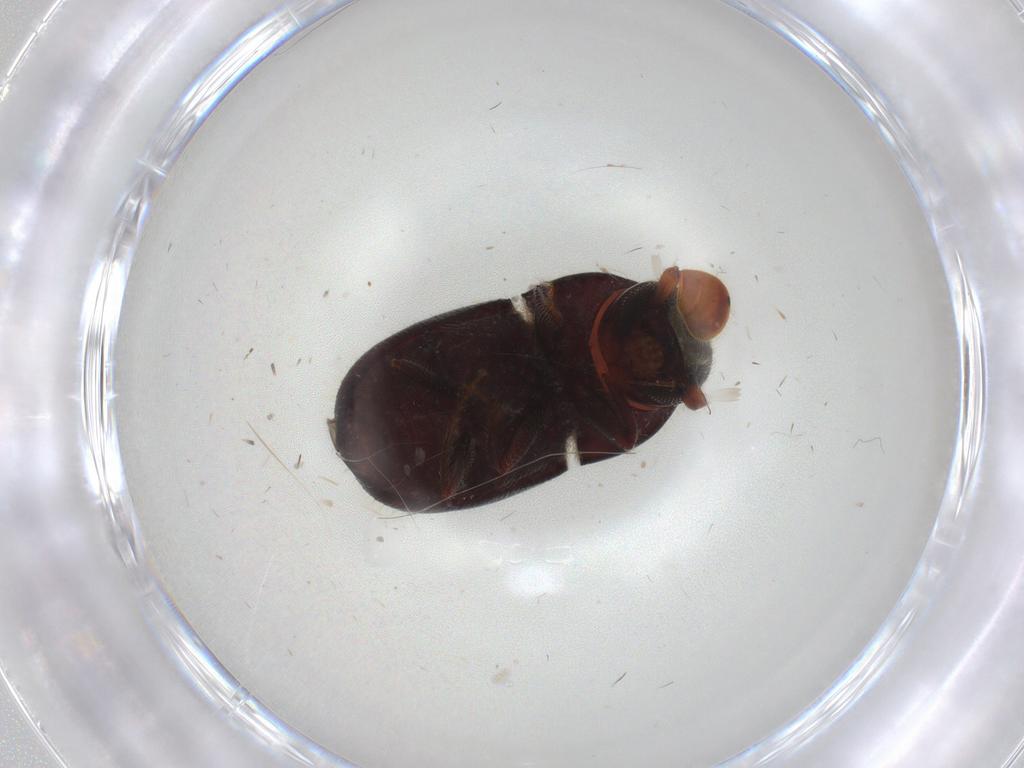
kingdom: Animalia
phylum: Arthropoda
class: Insecta
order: Coleoptera
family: Curculionidae
